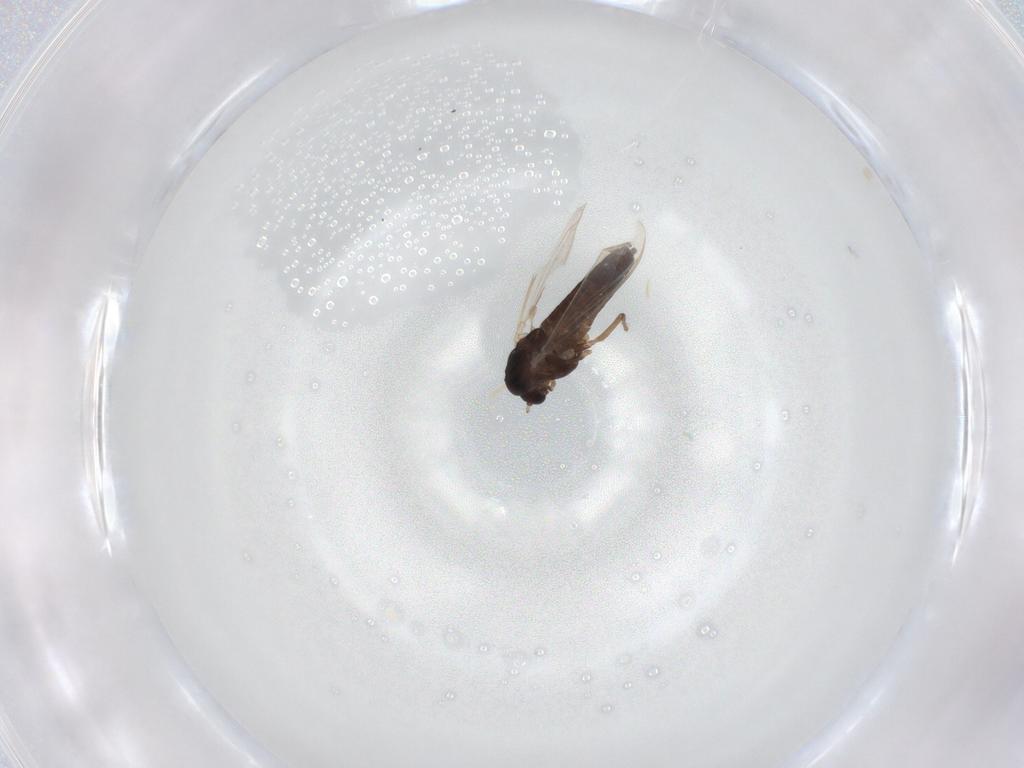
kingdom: Animalia
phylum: Arthropoda
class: Insecta
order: Diptera
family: Chironomidae
